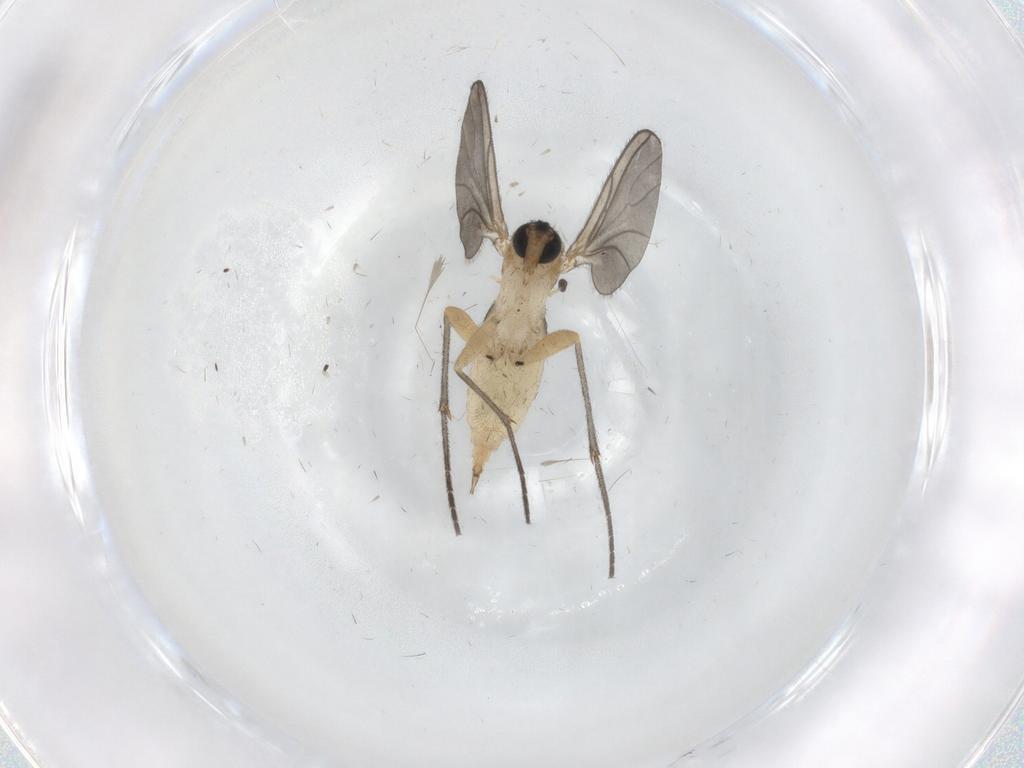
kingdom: Animalia
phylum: Arthropoda
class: Insecta
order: Diptera
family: Sciaridae
